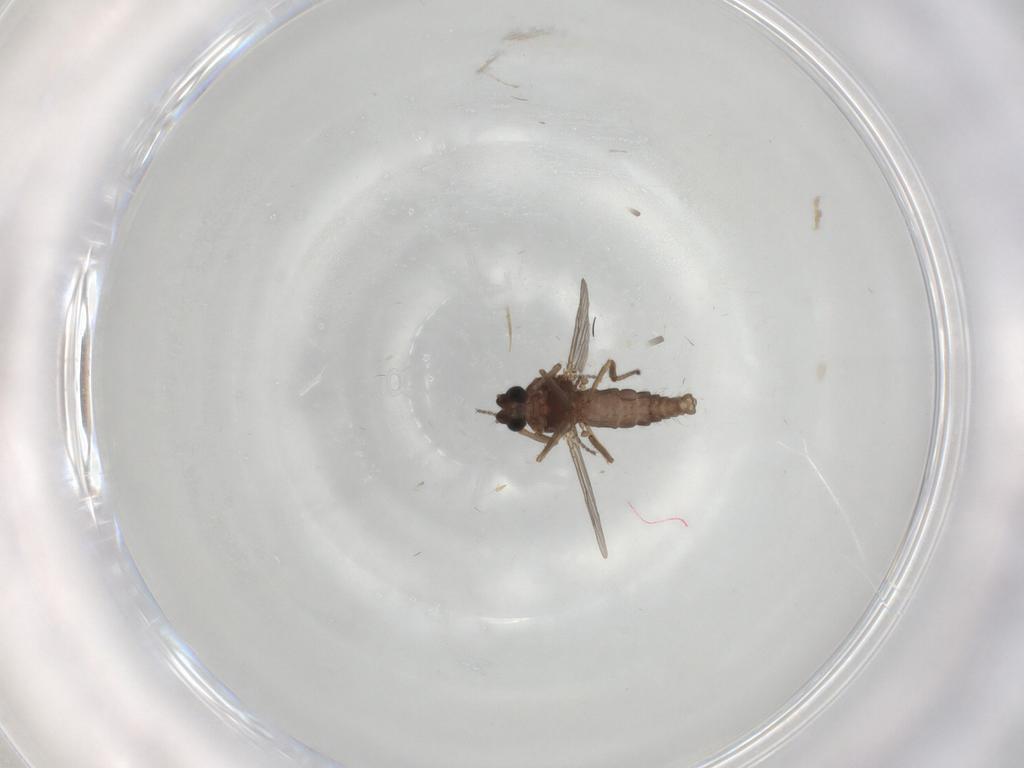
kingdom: Animalia
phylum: Arthropoda
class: Insecta
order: Diptera
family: Ceratopogonidae
